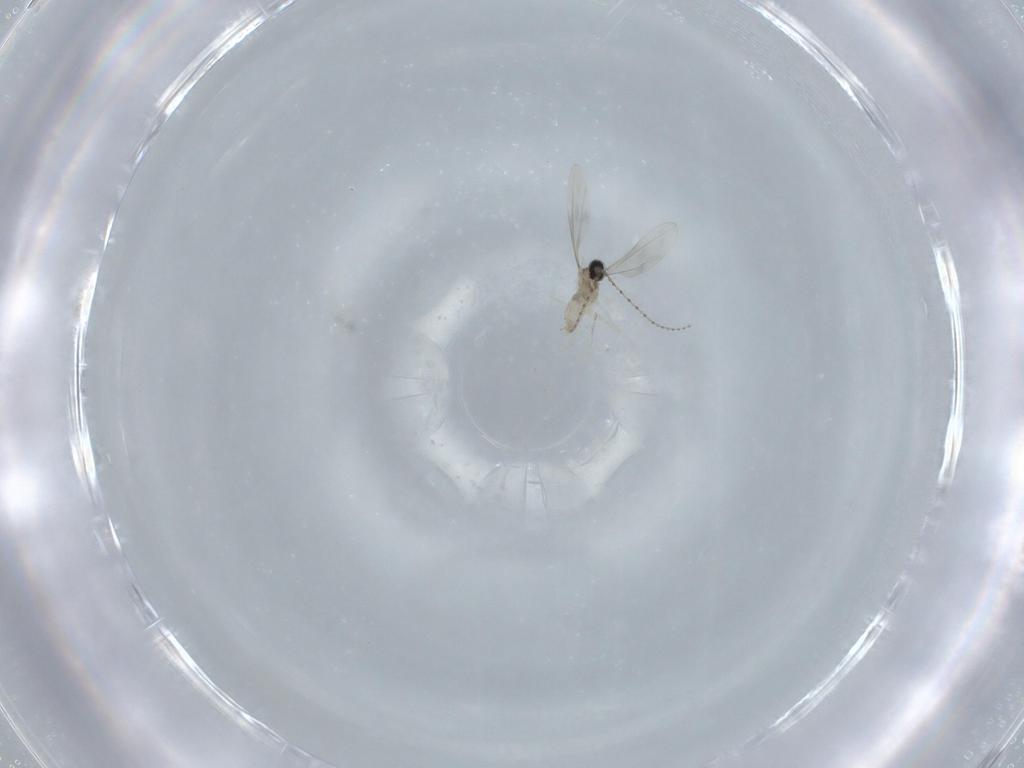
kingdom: Animalia
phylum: Arthropoda
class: Insecta
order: Diptera
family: Cecidomyiidae
